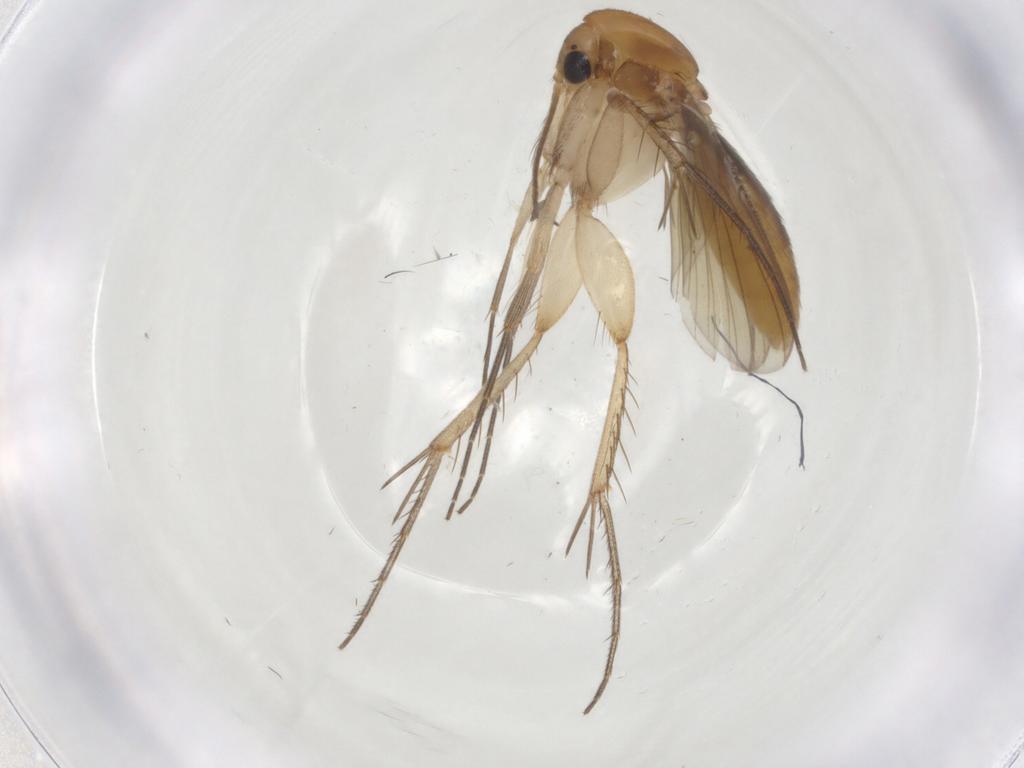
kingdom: Animalia
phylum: Arthropoda
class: Insecta
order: Diptera
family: Mycetophilidae
